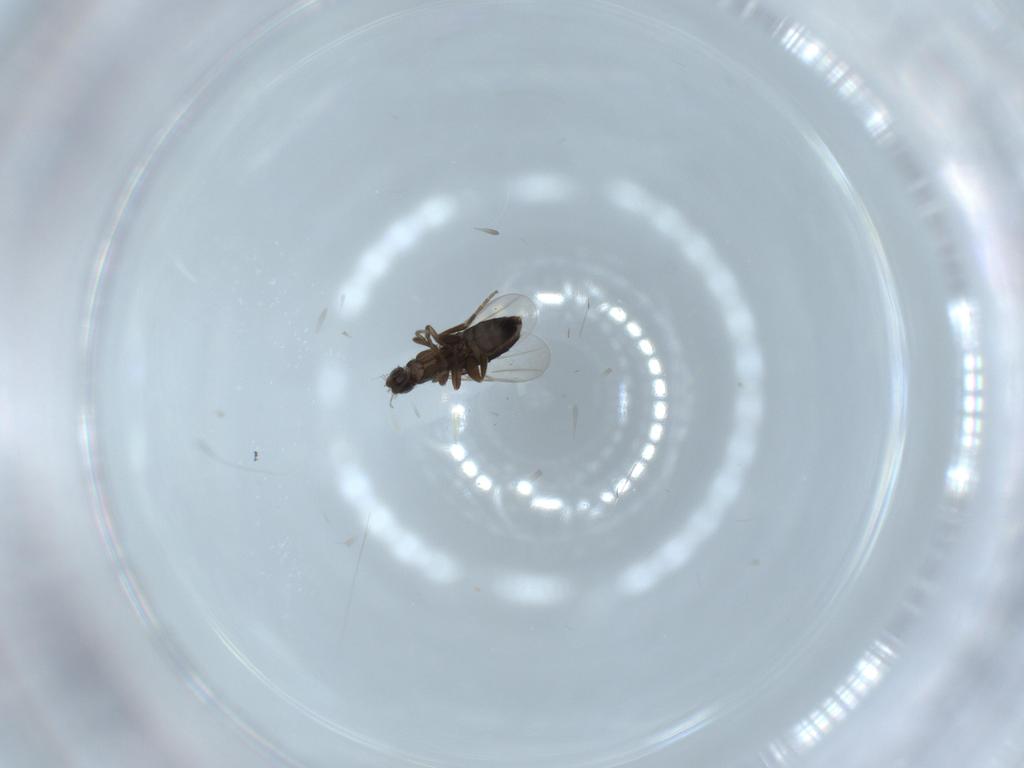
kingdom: Animalia
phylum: Arthropoda
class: Insecta
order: Diptera
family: Phoridae
